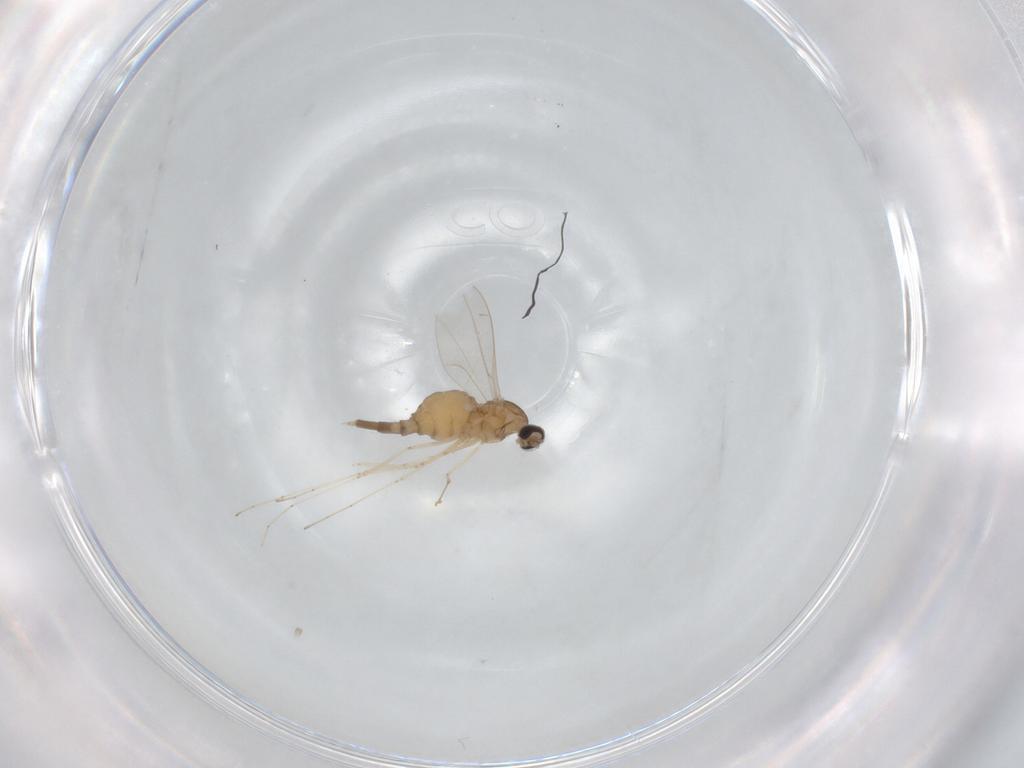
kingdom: Animalia
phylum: Arthropoda
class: Insecta
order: Diptera
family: Cecidomyiidae
